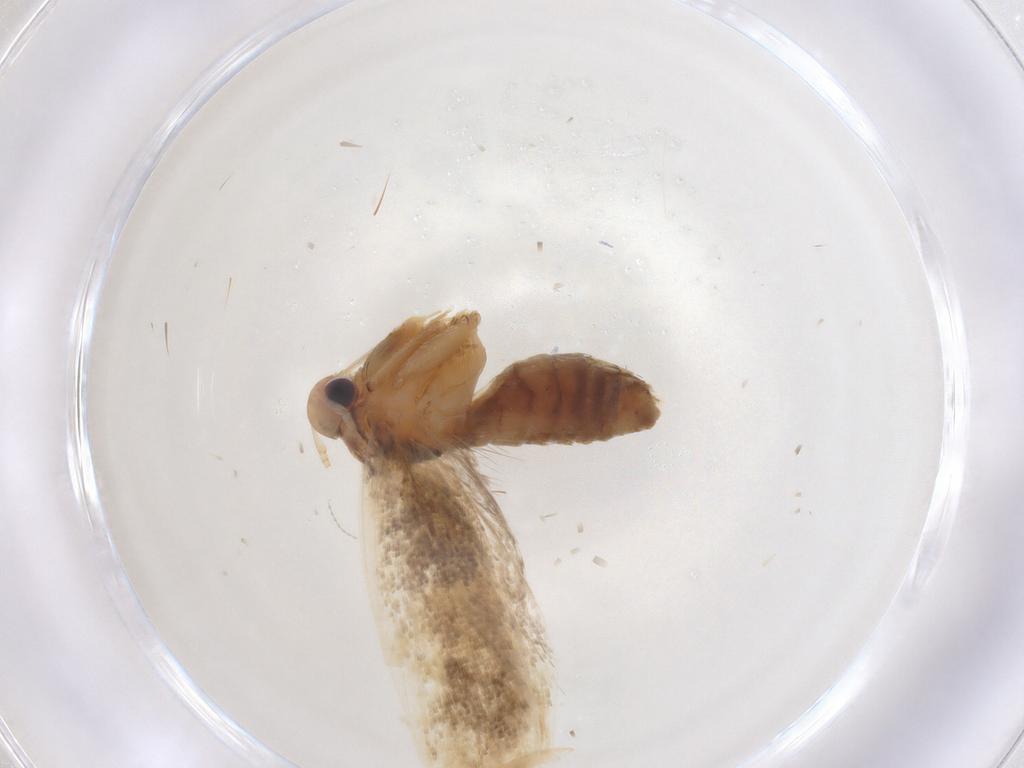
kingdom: Animalia
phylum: Arthropoda
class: Insecta
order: Lepidoptera
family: Lecithoceridae
